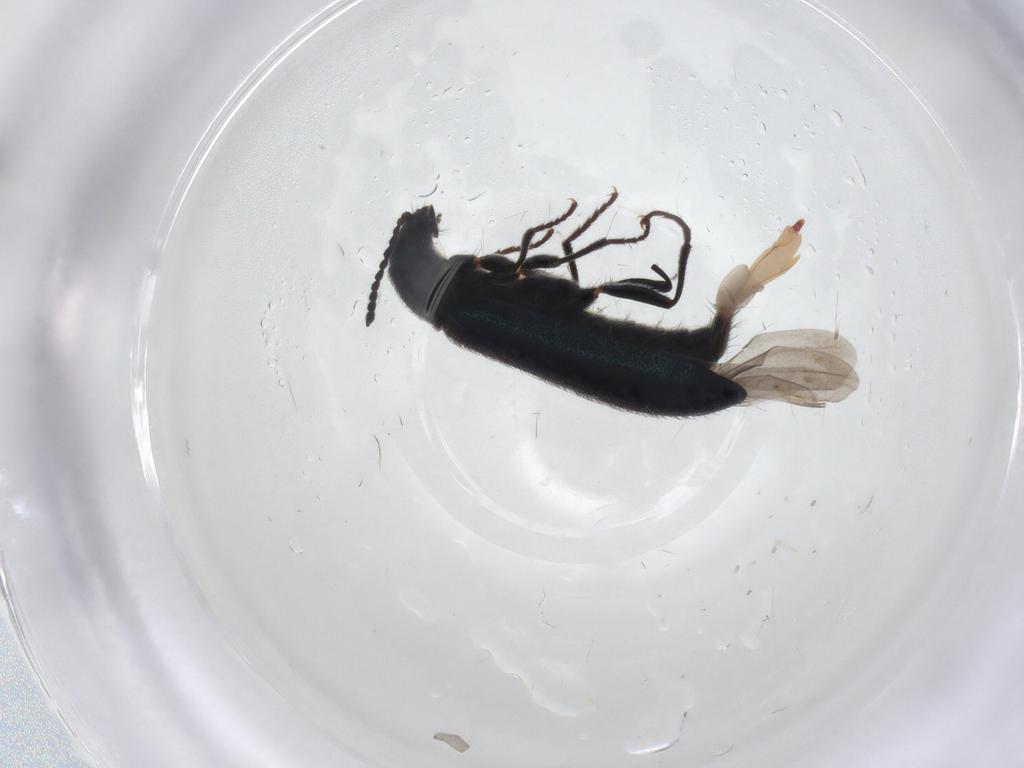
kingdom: Animalia
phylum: Arthropoda
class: Insecta
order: Coleoptera
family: Melyridae
